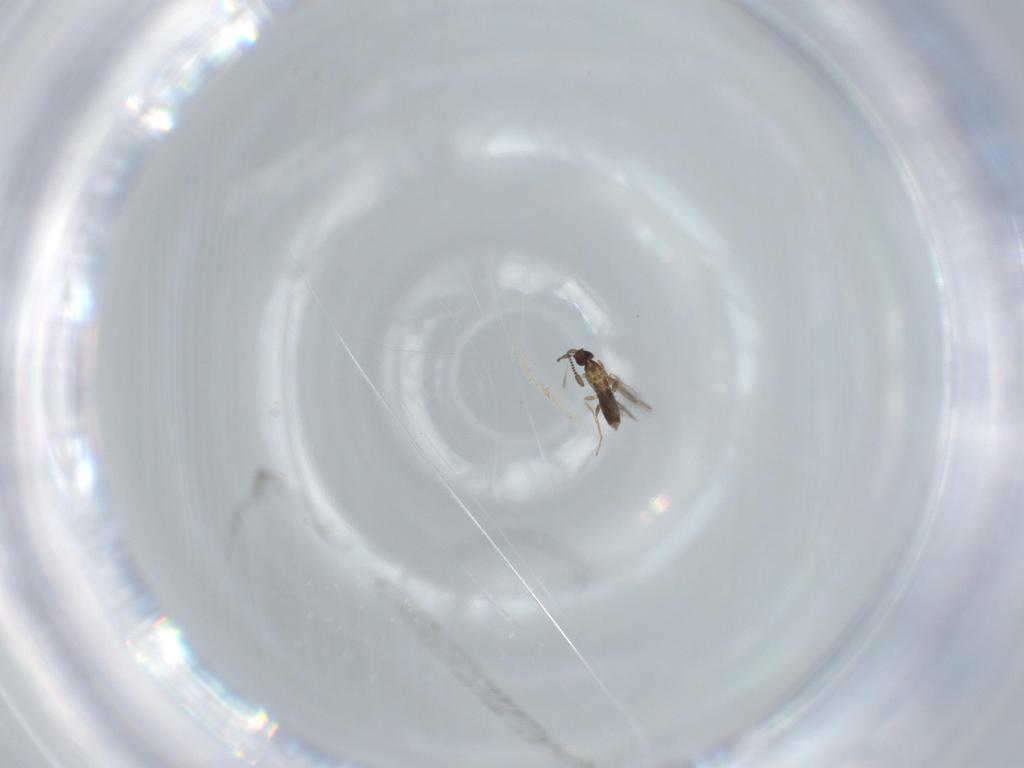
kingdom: Animalia
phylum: Arthropoda
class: Insecta
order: Hymenoptera
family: Mymaridae
